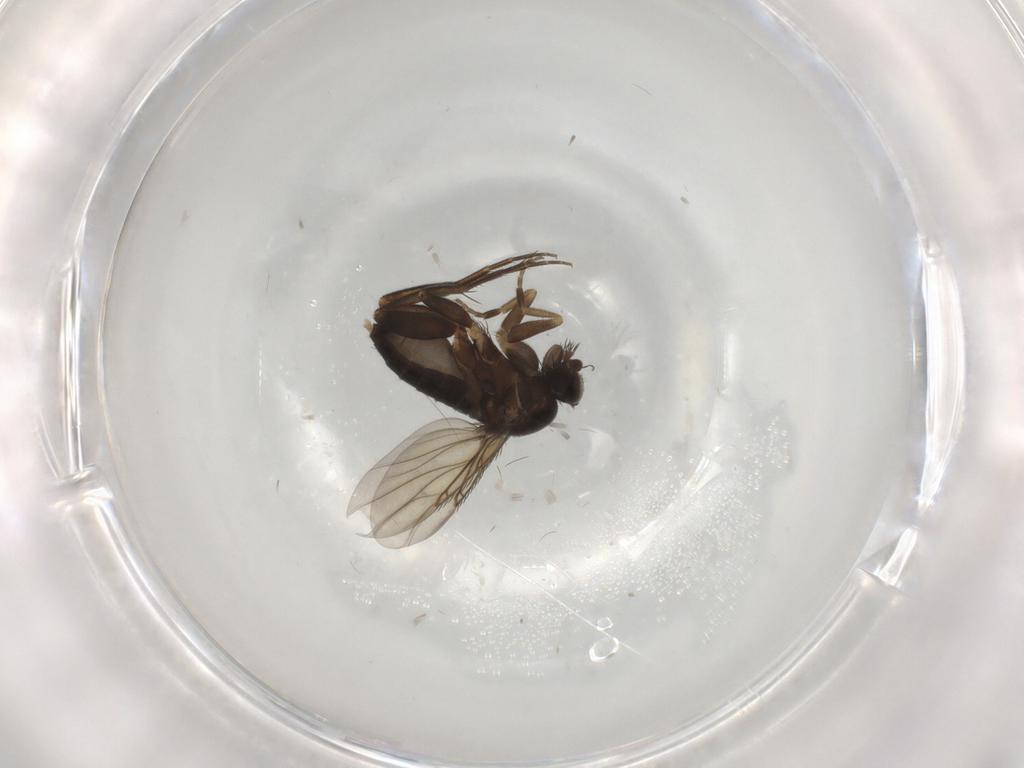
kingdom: Animalia
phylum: Arthropoda
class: Insecta
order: Diptera
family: Phoridae
